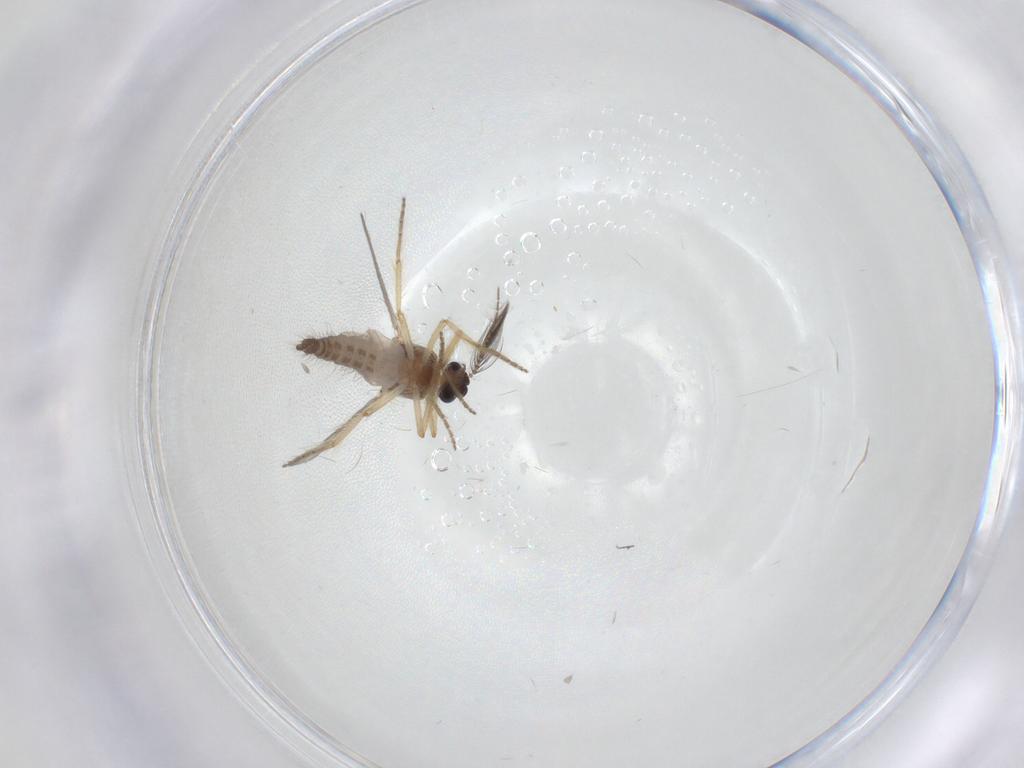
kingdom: Animalia
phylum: Arthropoda
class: Insecta
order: Diptera
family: Ceratopogonidae
